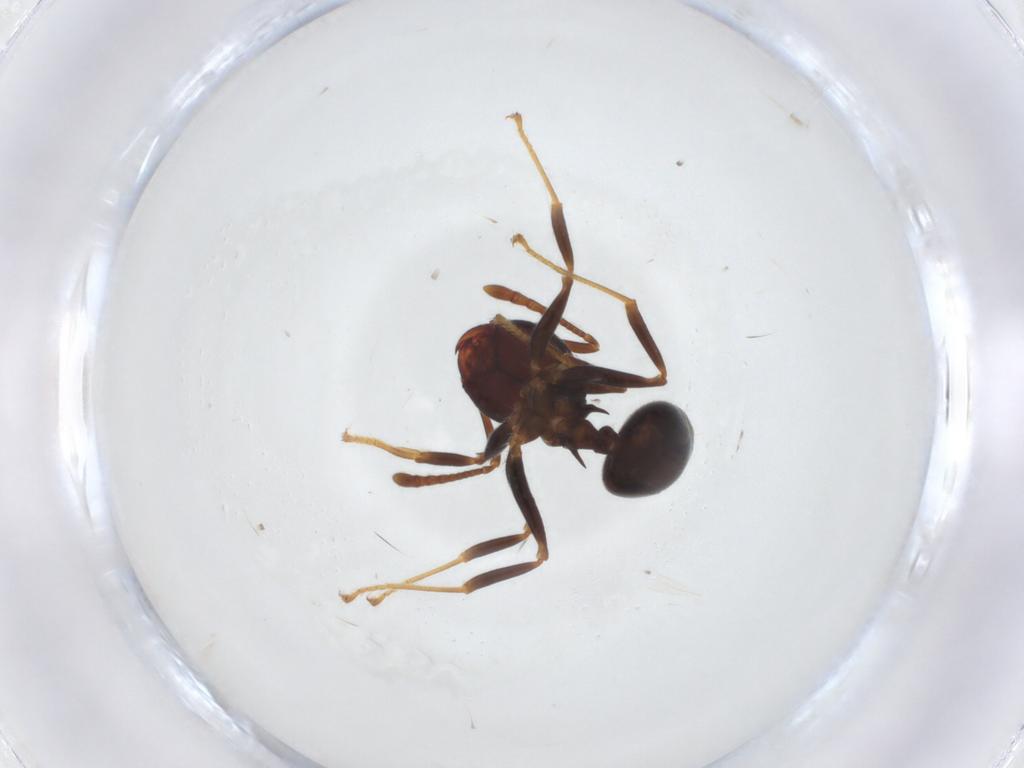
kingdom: Animalia
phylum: Arthropoda
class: Insecta
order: Hymenoptera
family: Formicidae
